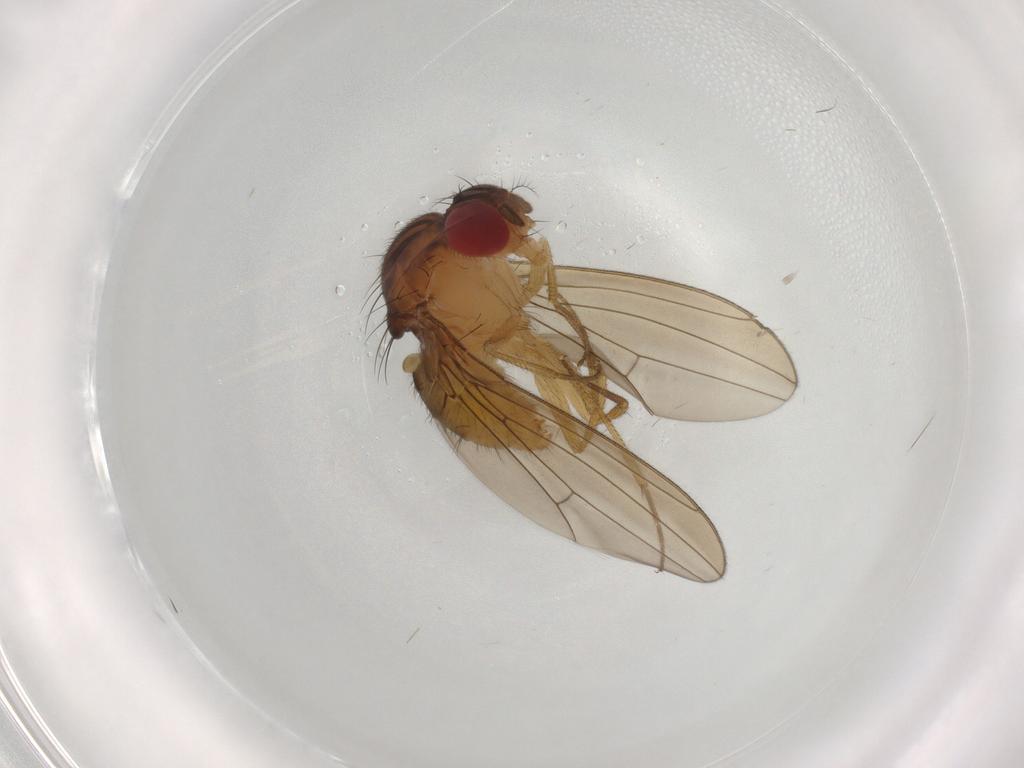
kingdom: Animalia
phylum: Arthropoda
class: Insecta
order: Diptera
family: Drosophilidae
